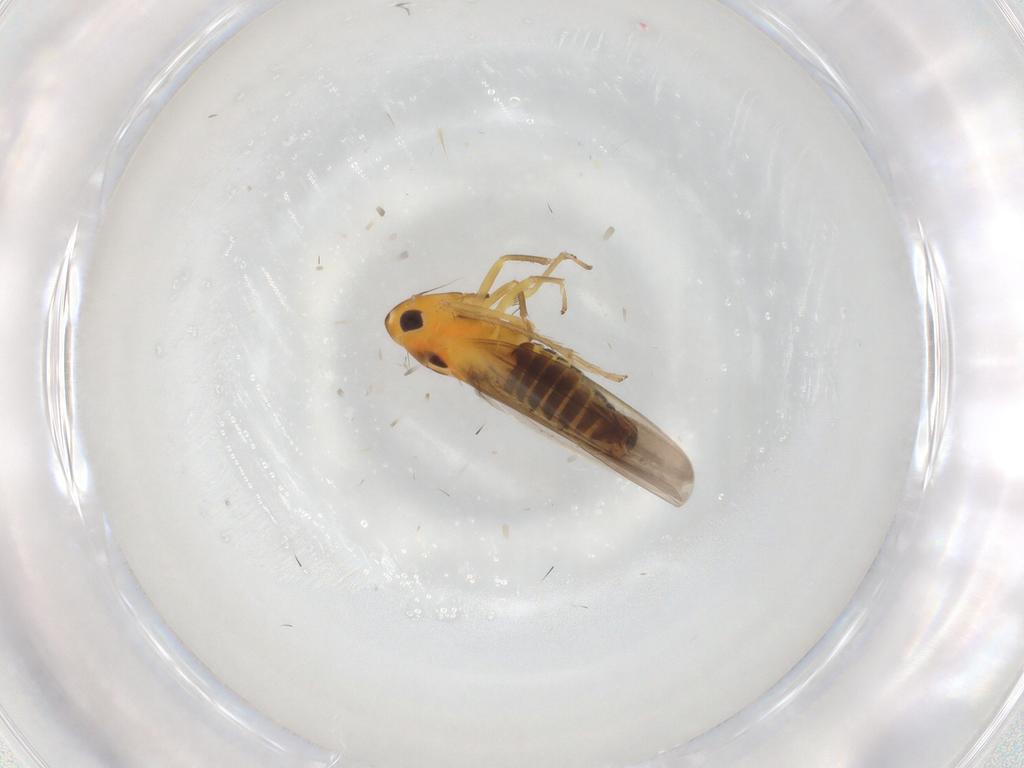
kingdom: Animalia
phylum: Arthropoda
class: Insecta
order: Hemiptera
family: Cicadellidae
